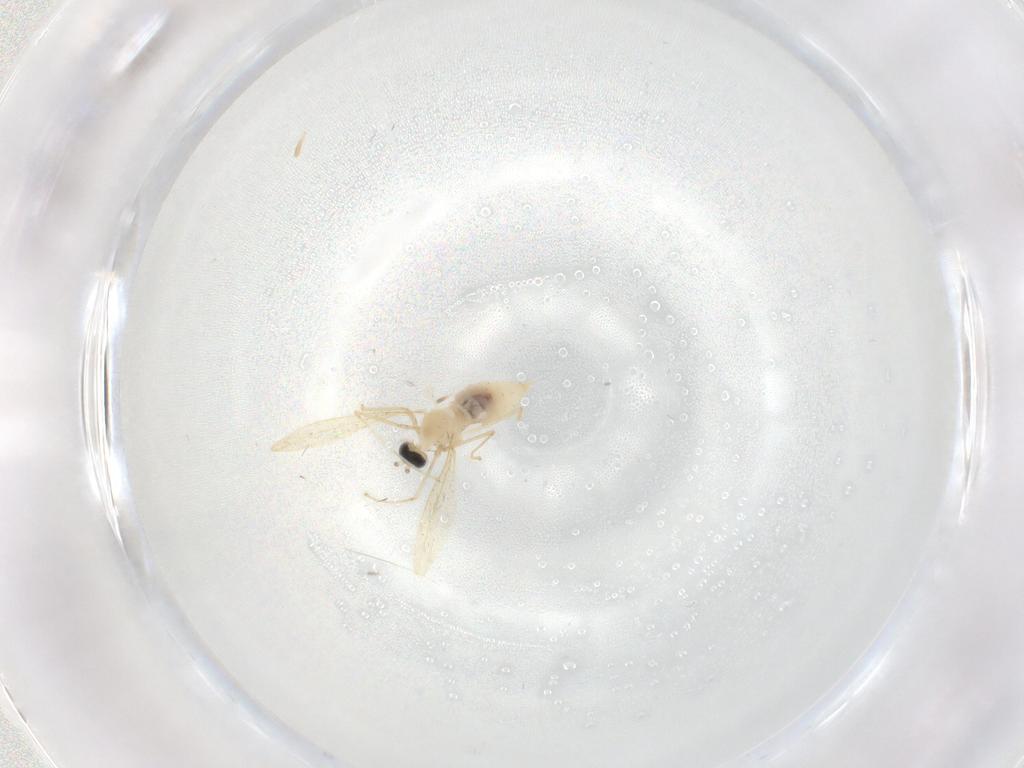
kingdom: Animalia
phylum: Arthropoda
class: Insecta
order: Diptera
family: Phoridae
